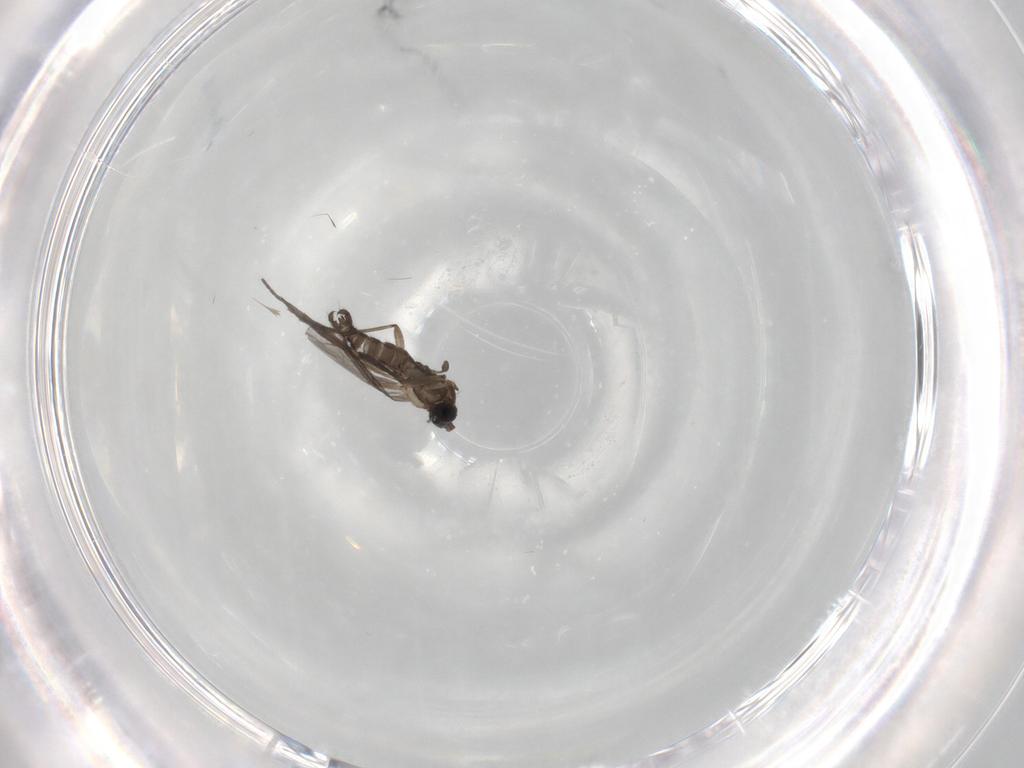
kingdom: Animalia
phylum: Arthropoda
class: Insecta
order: Diptera
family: Sciaridae
